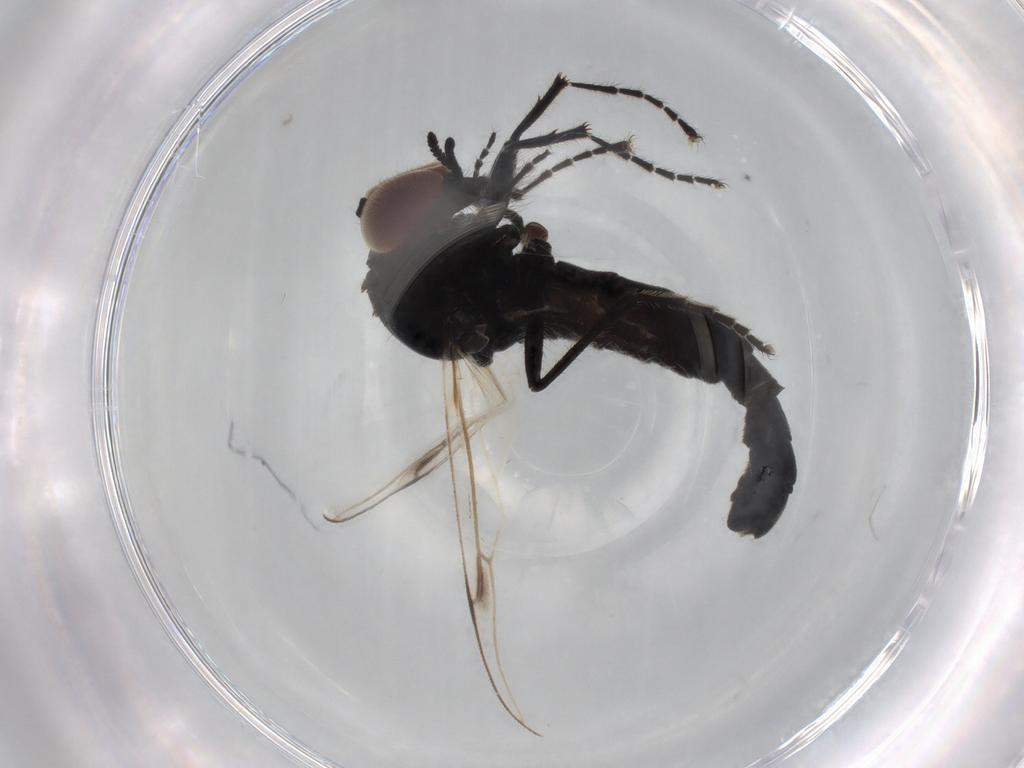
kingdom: Animalia
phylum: Arthropoda
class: Insecta
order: Diptera
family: Bibionidae
